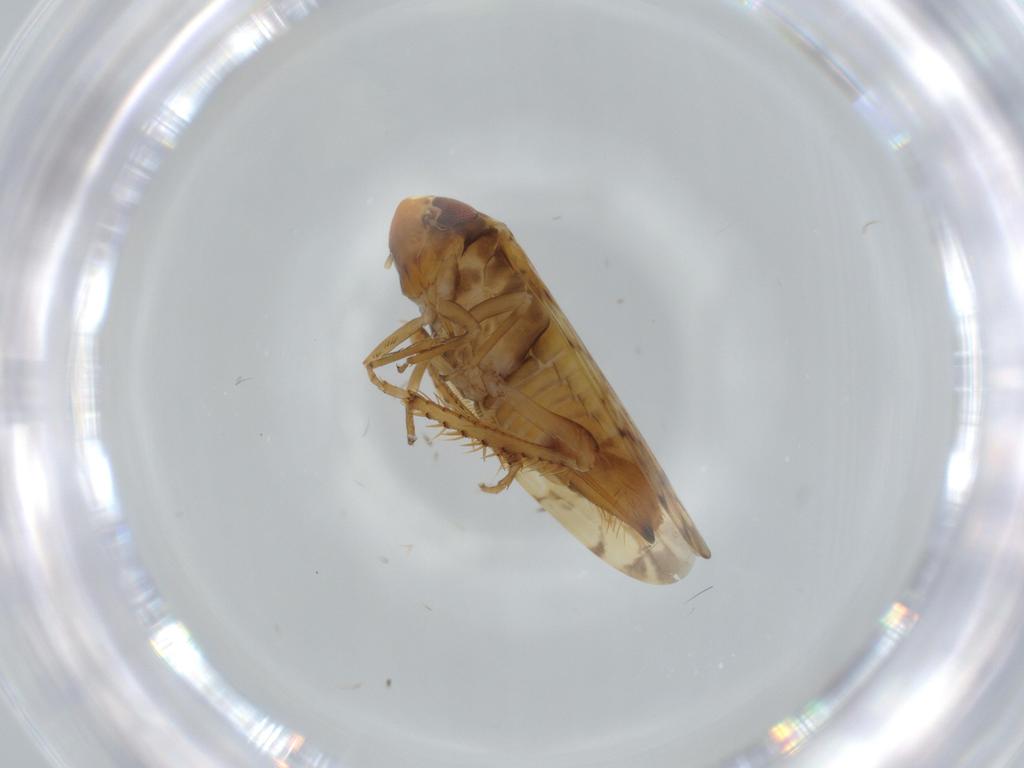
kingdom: Animalia
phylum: Arthropoda
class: Insecta
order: Hemiptera
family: Cicadellidae
